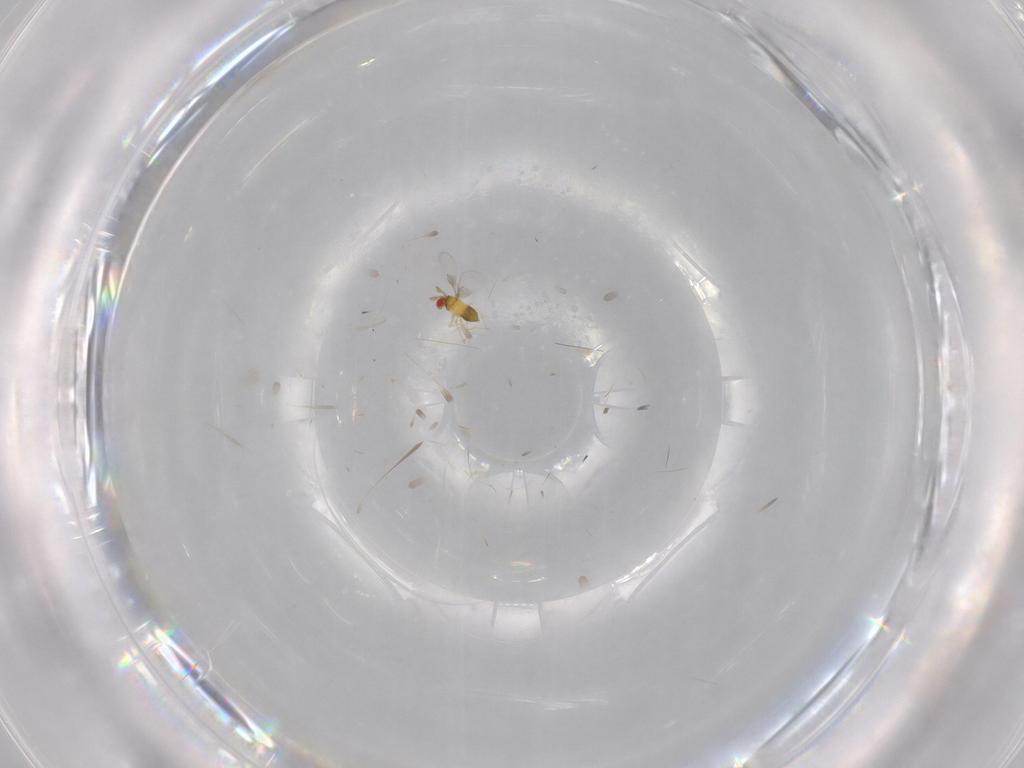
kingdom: Animalia
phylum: Arthropoda
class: Insecta
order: Hymenoptera
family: Trichogrammatidae
